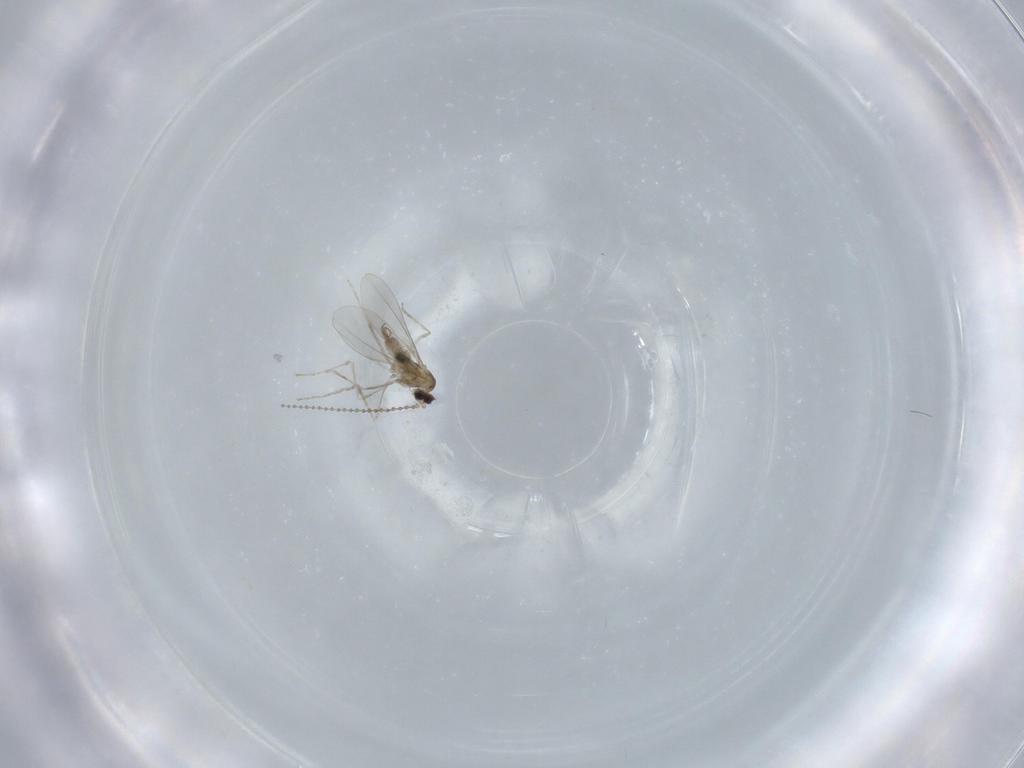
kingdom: Animalia
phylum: Arthropoda
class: Insecta
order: Diptera
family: Cecidomyiidae
